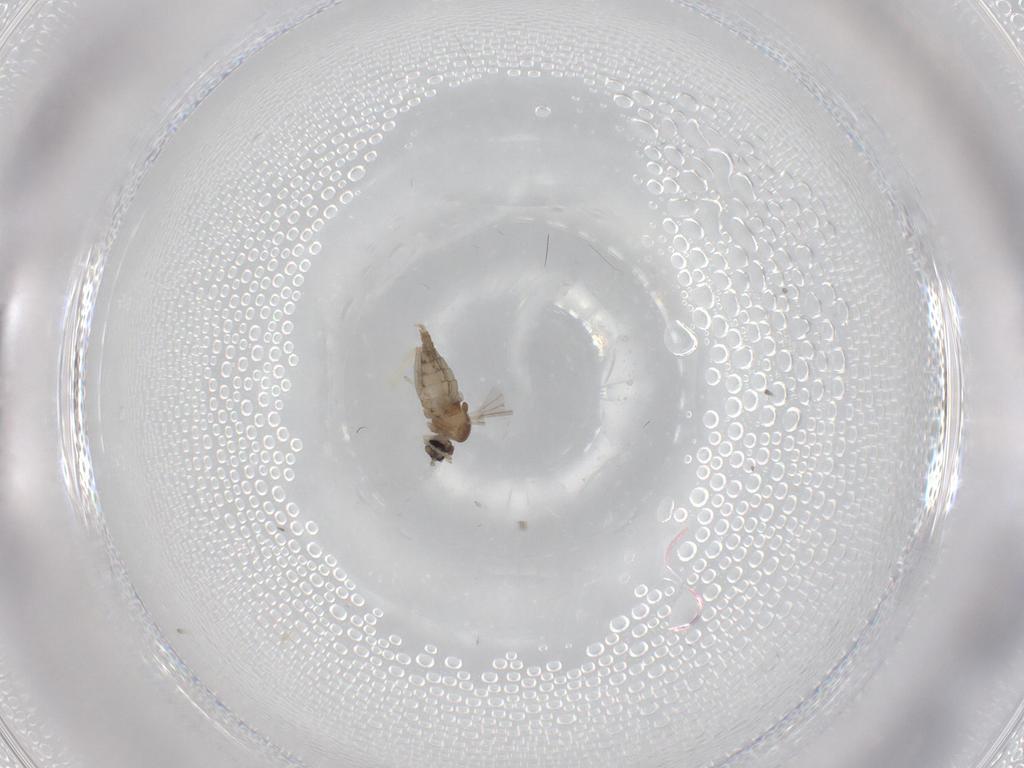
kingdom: Animalia
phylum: Arthropoda
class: Insecta
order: Diptera
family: Cecidomyiidae
